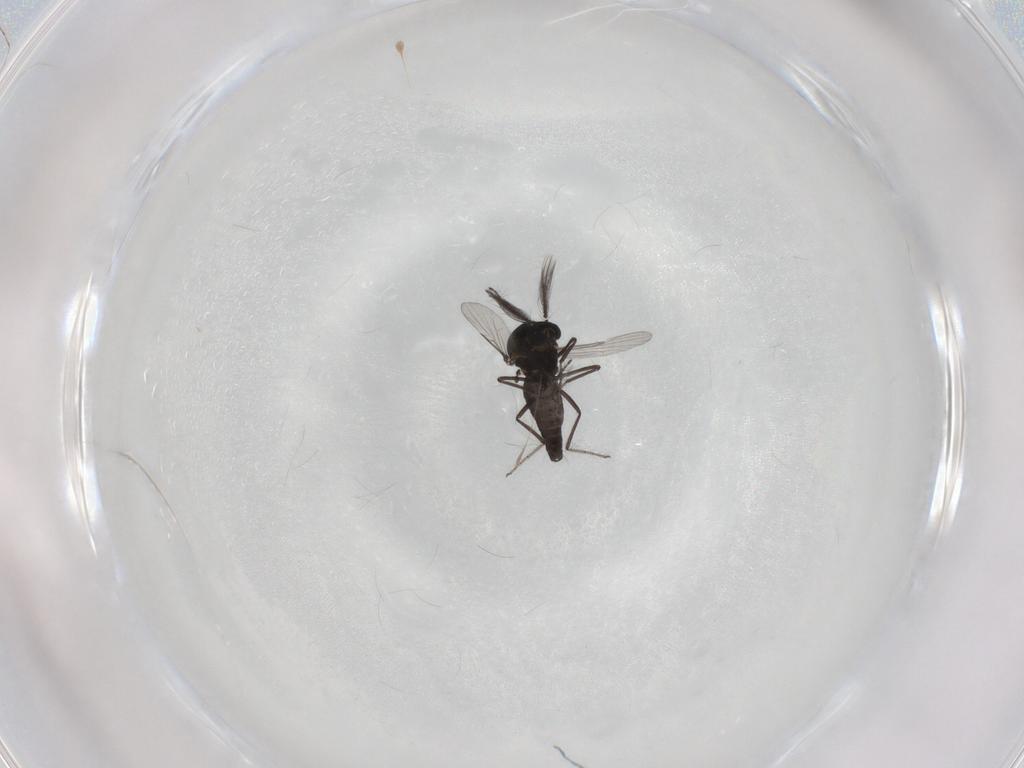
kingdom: Animalia
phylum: Arthropoda
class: Insecta
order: Diptera
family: Ceratopogonidae
